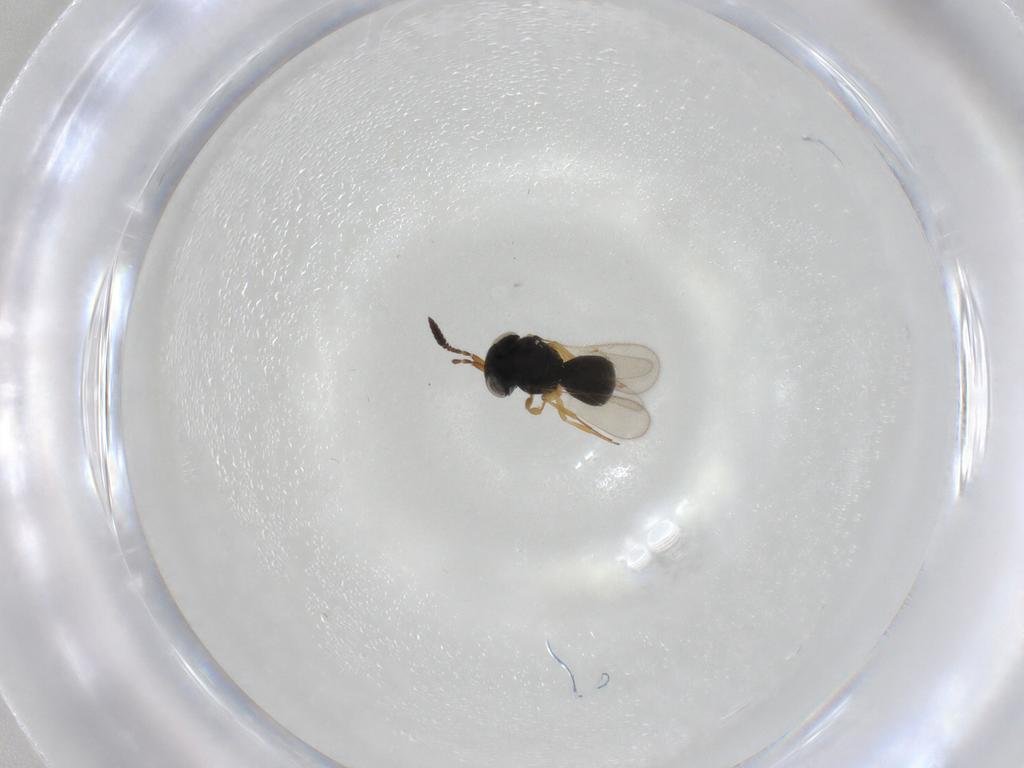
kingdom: Animalia
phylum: Arthropoda
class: Insecta
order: Hymenoptera
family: Scelionidae
